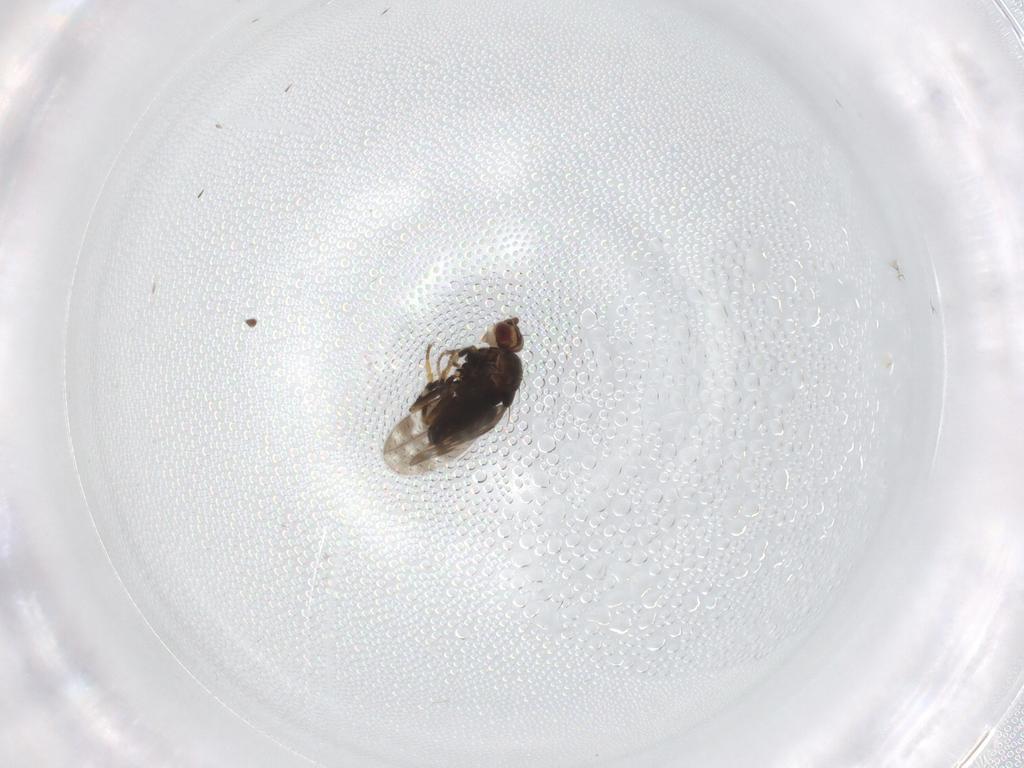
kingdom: Animalia
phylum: Arthropoda
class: Insecta
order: Diptera
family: Sphaeroceridae
